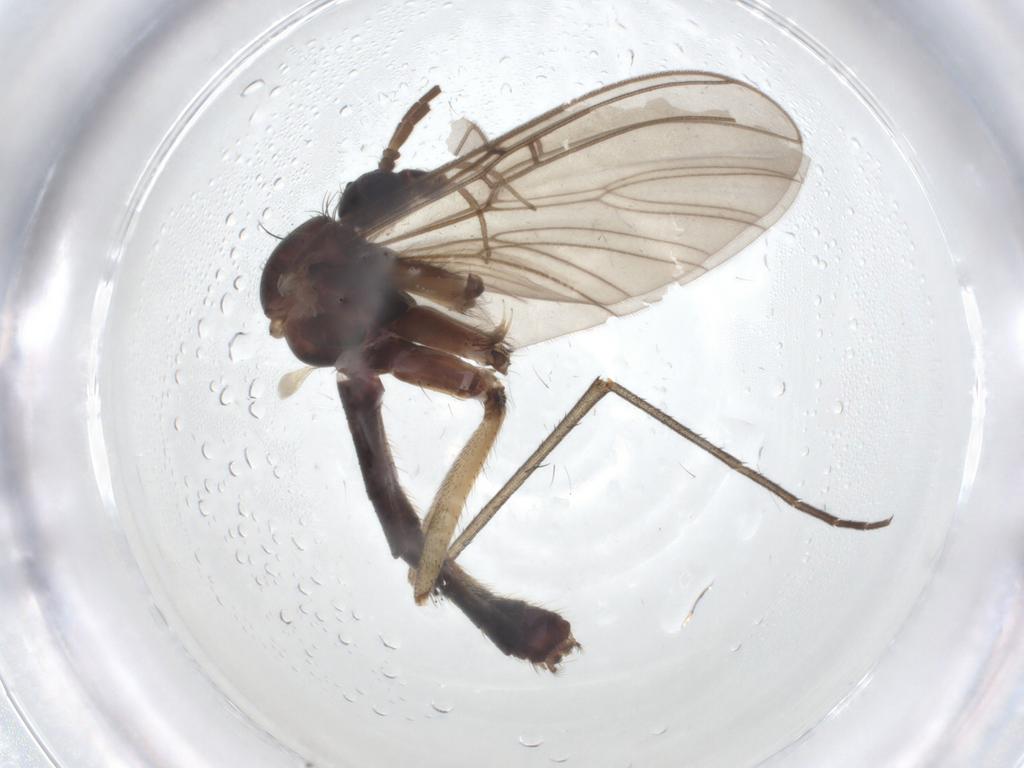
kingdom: Animalia
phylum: Arthropoda
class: Insecta
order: Diptera
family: Mycetophilidae
